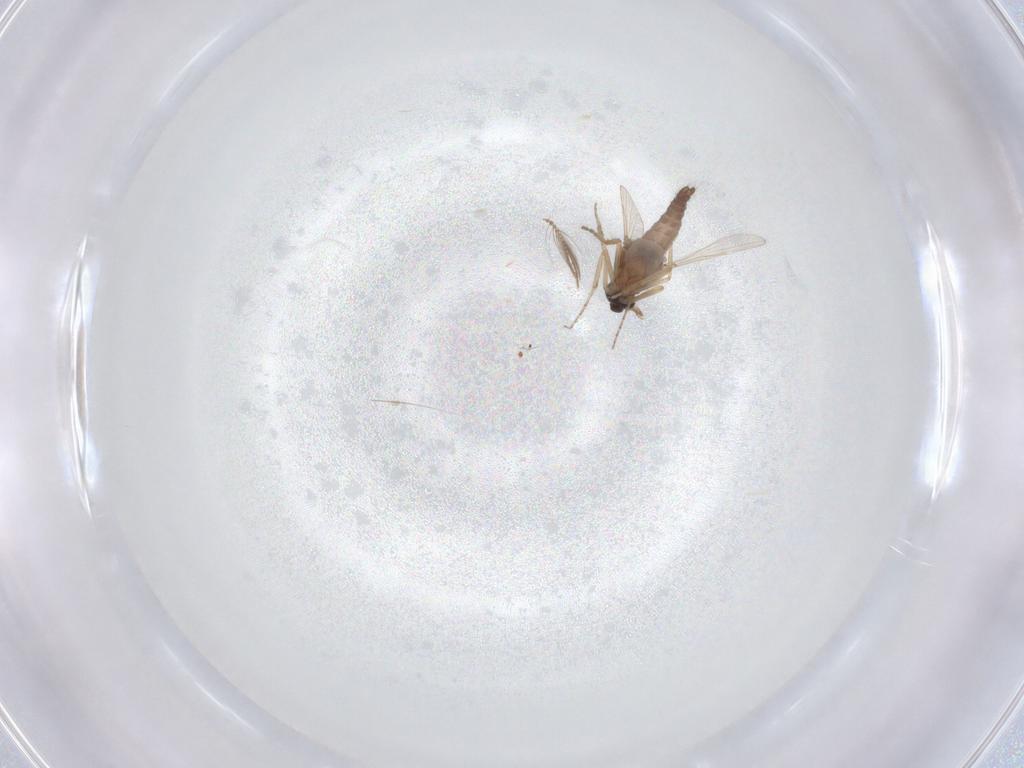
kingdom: Animalia
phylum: Arthropoda
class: Insecta
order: Diptera
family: Ceratopogonidae
